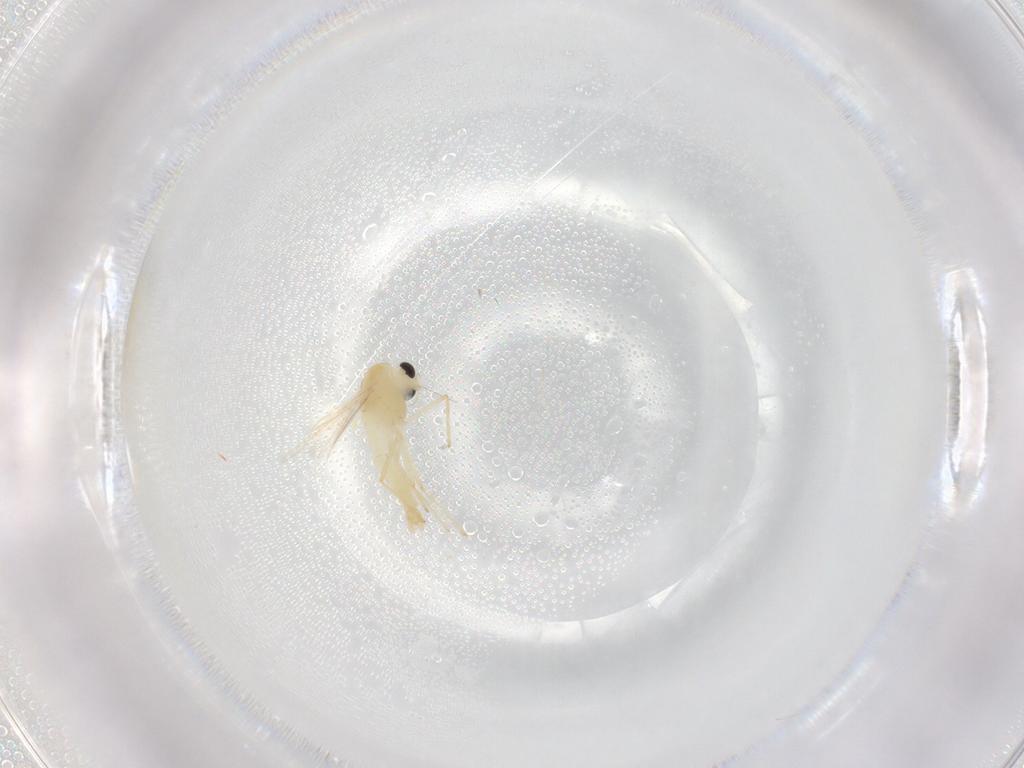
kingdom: Animalia
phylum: Arthropoda
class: Insecta
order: Diptera
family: Chironomidae
